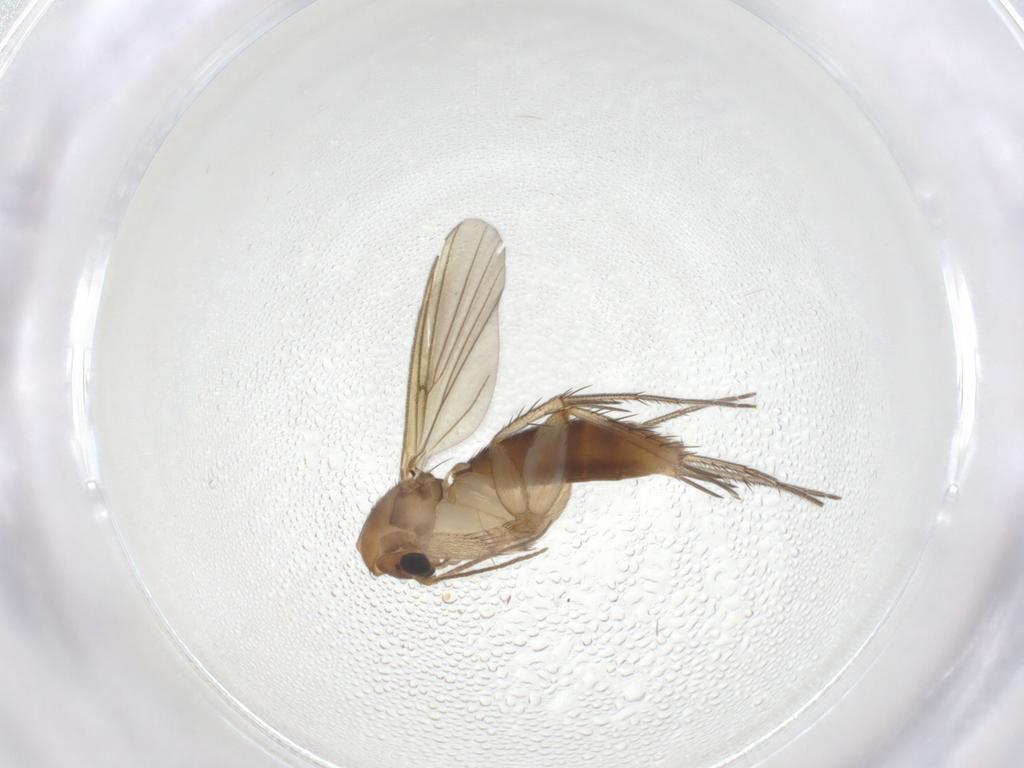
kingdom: Animalia
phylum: Arthropoda
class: Insecta
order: Diptera
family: Mycetophilidae
